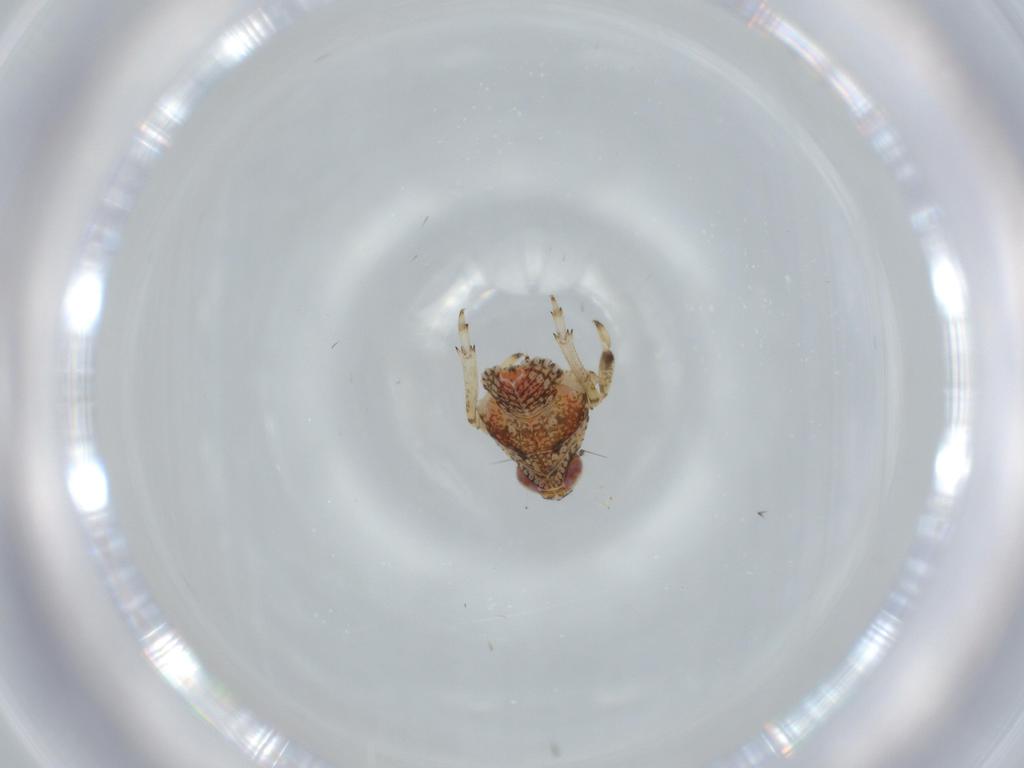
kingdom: Animalia
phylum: Arthropoda
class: Insecta
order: Hemiptera
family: Issidae
